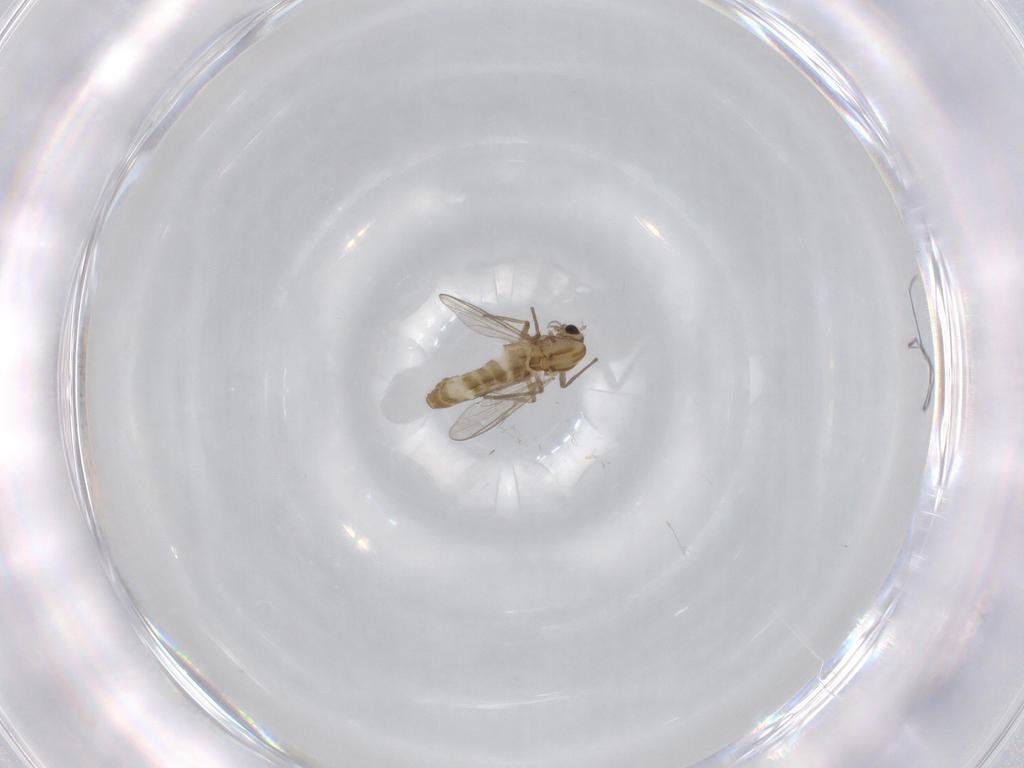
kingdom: Animalia
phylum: Arthropoda
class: Insecta
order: Diptera
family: Chironomidae
